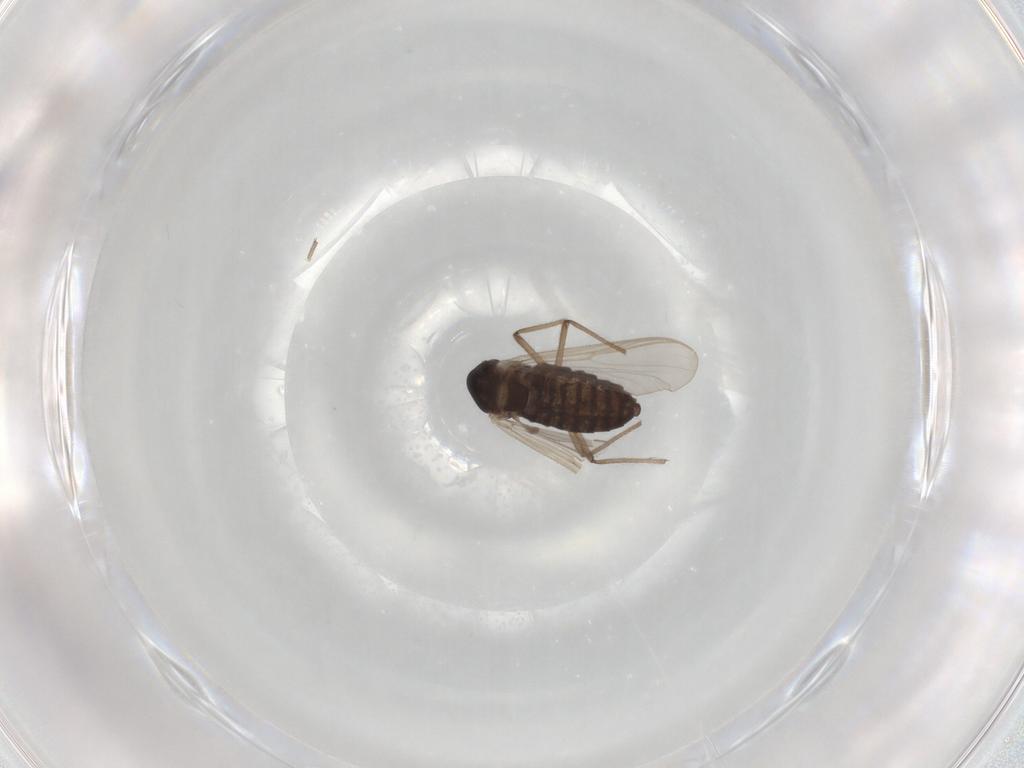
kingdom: Animalia
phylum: Arthropoda
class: Insecta
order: Diptera
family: Chironomidae
